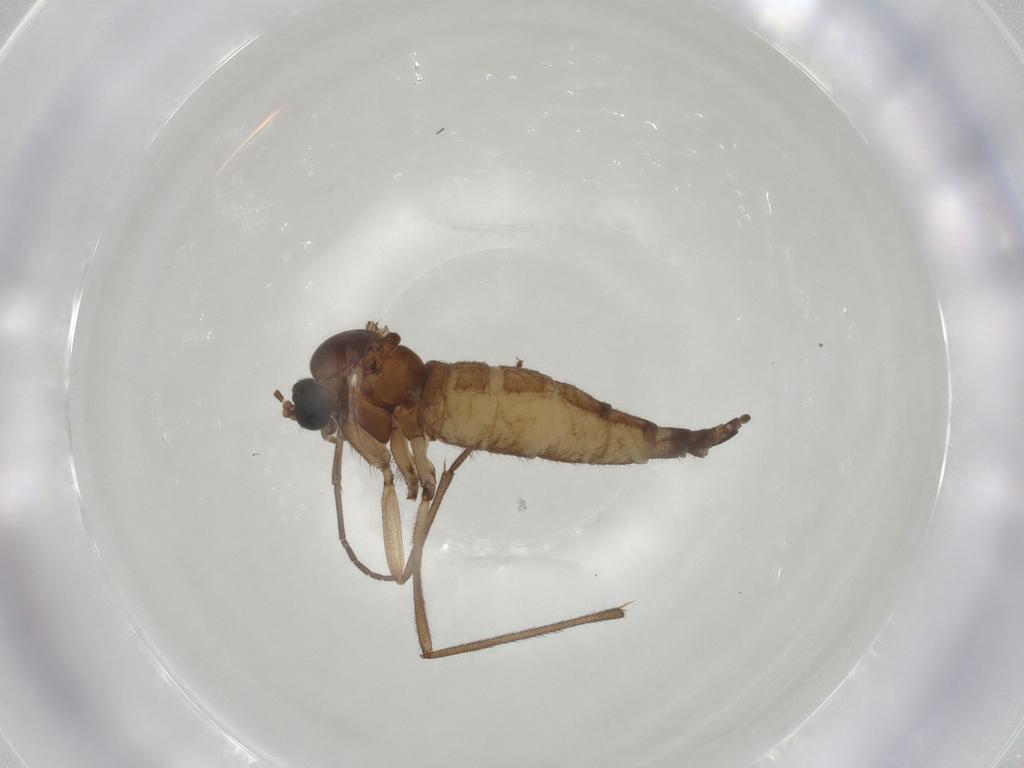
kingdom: Animalia
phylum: Arthropoda
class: Insecta
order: Diptera
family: Sciaridae
